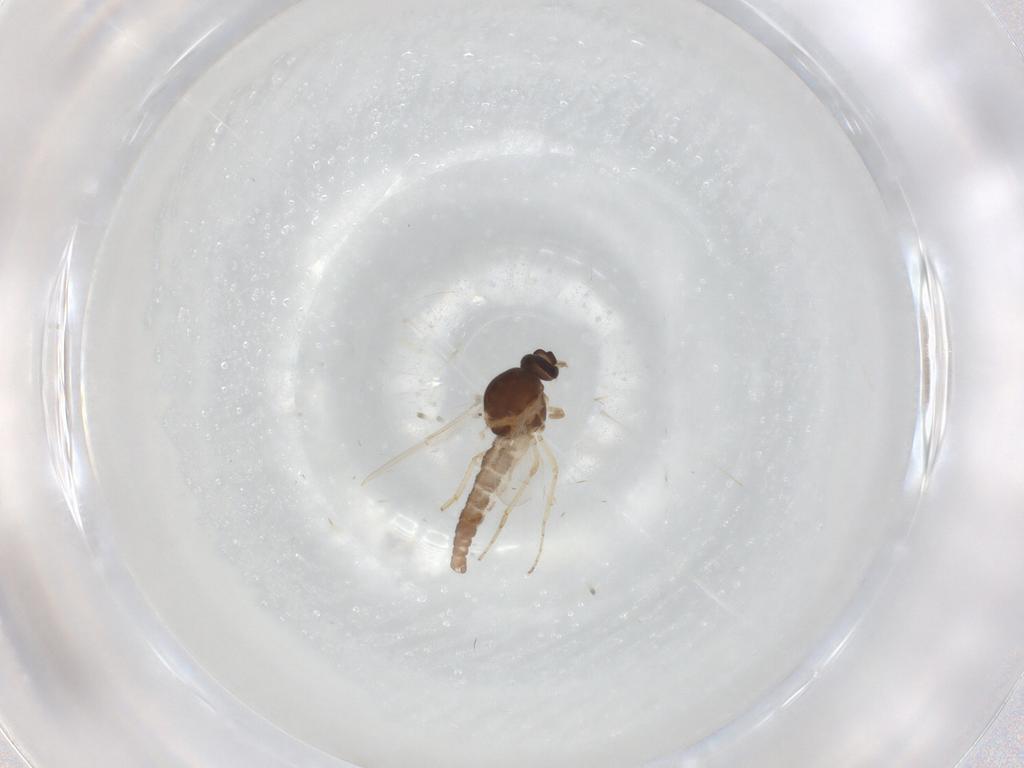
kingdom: Animalia
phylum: Arthropoda
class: Insecta
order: Diptera
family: Ceratopogonidae
